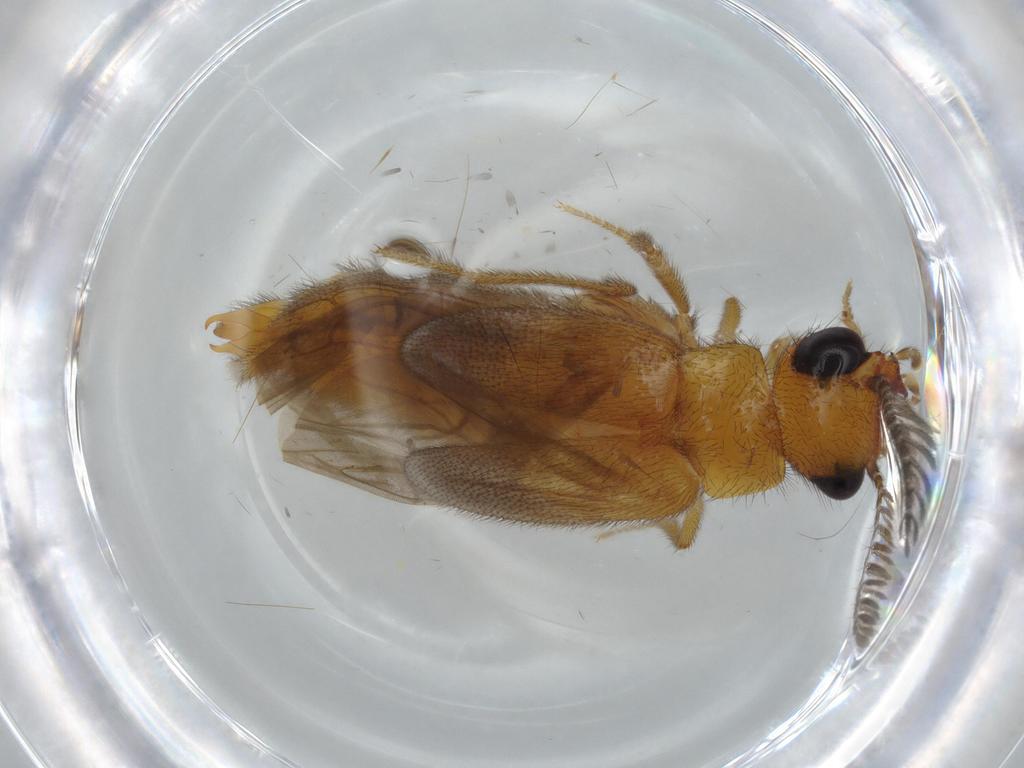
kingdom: Animalia
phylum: Arthropoda
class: Insecta
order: Coleoptera
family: Phengodidae
